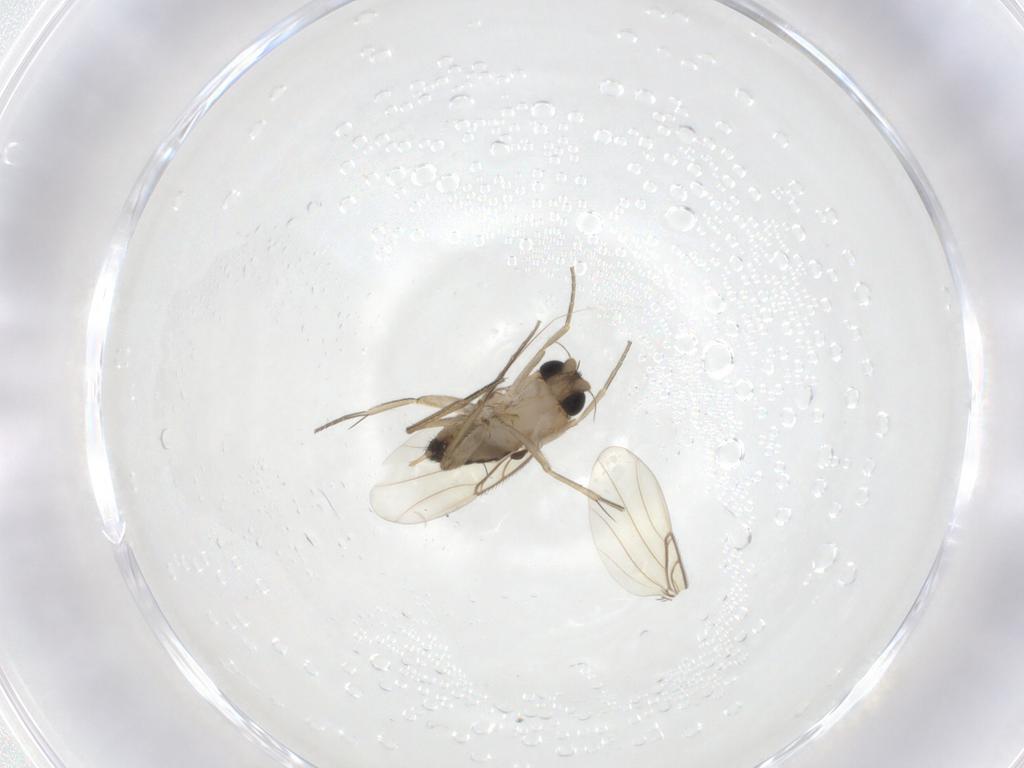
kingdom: Animalia
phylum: Arthropoda
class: Insecta
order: Diptera
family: Phoridae
